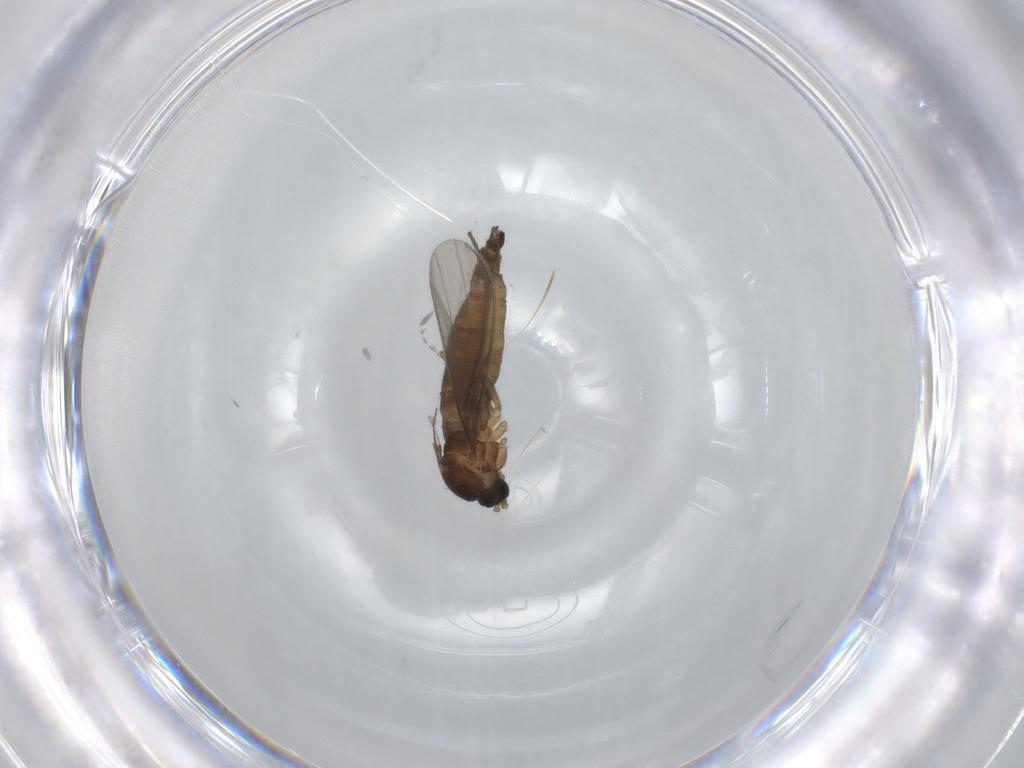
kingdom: Animalia
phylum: Arthropoda
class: Insecta
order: Diptera
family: Sciaridae
